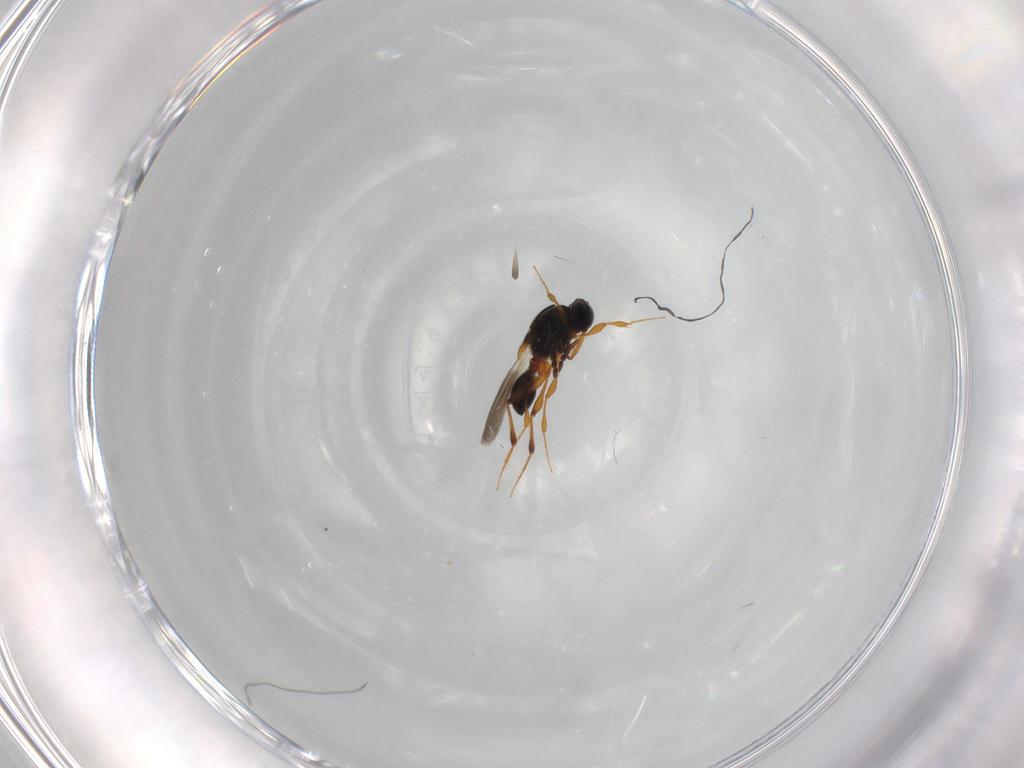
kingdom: Animalia
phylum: Arthropoda
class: Insecta
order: Hymenoptera
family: Platygastridae
